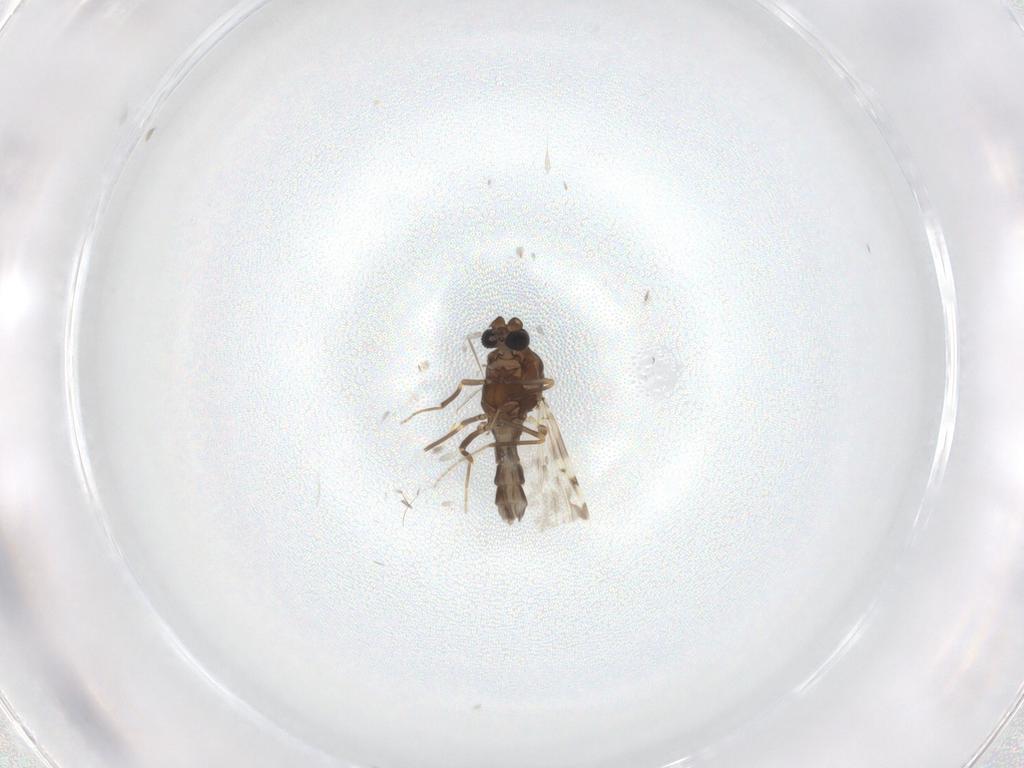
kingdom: Animalia
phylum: Arthropoda
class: Insecta
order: Diptera
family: Ceratopogonidae
